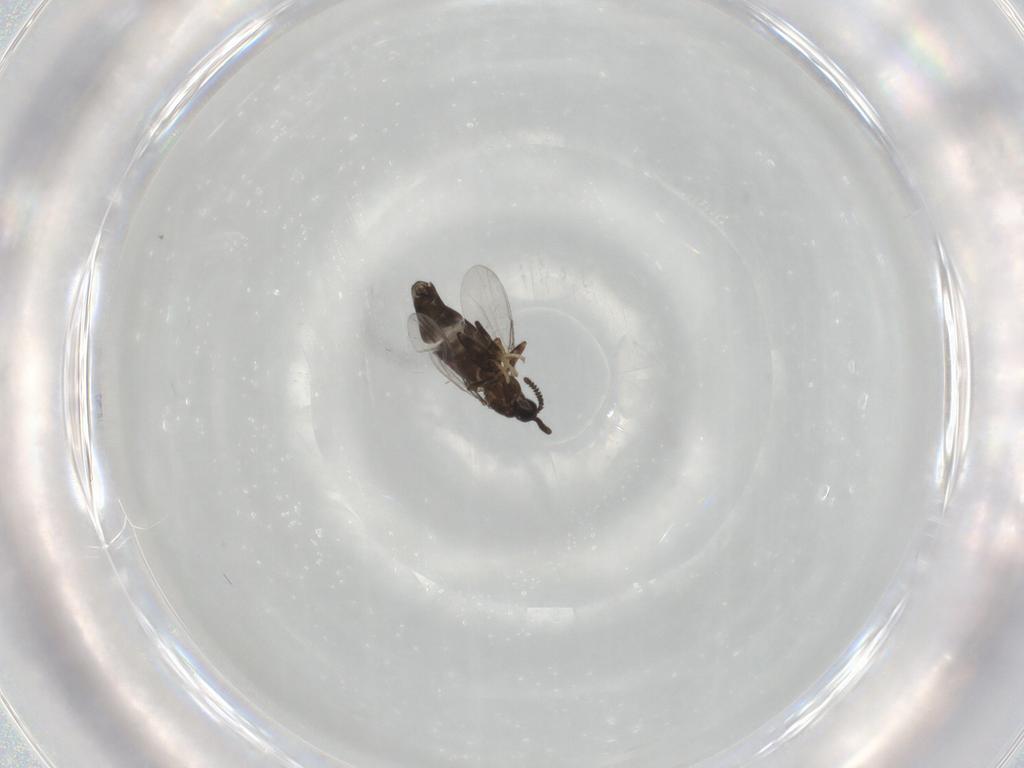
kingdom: Animalia
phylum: Arthropoda
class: Insecta
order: Diptera
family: Scatopsidae
